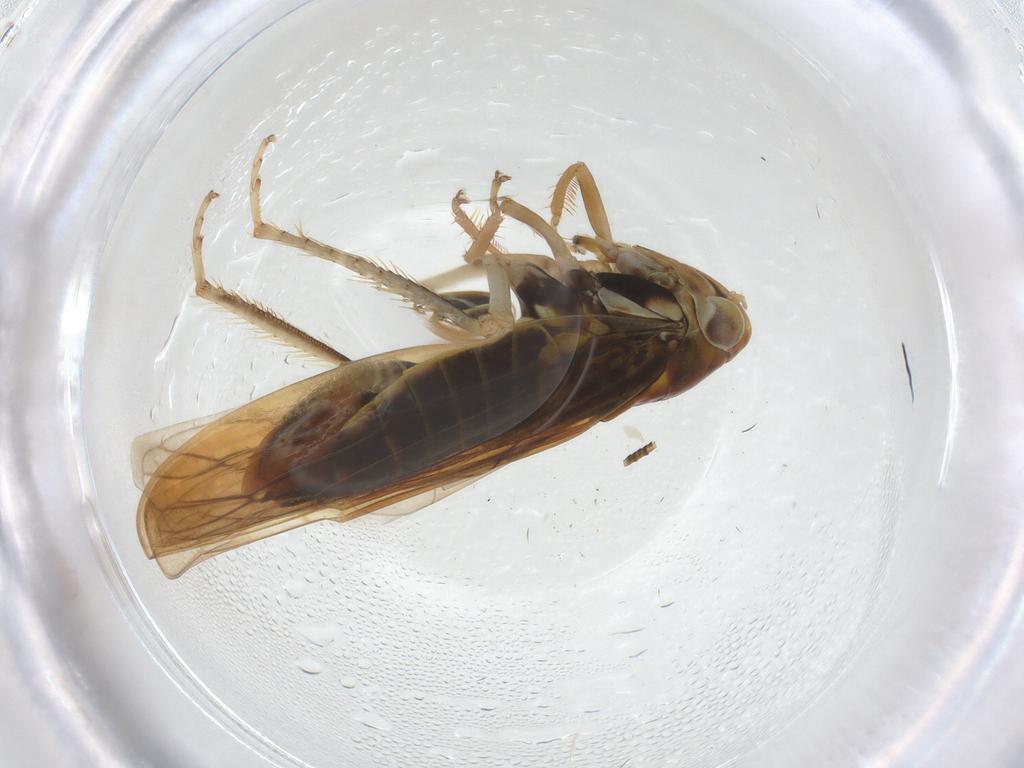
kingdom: Animalia
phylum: Arthropoda
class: Insecta
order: Hemiptera
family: Cicadellidae
